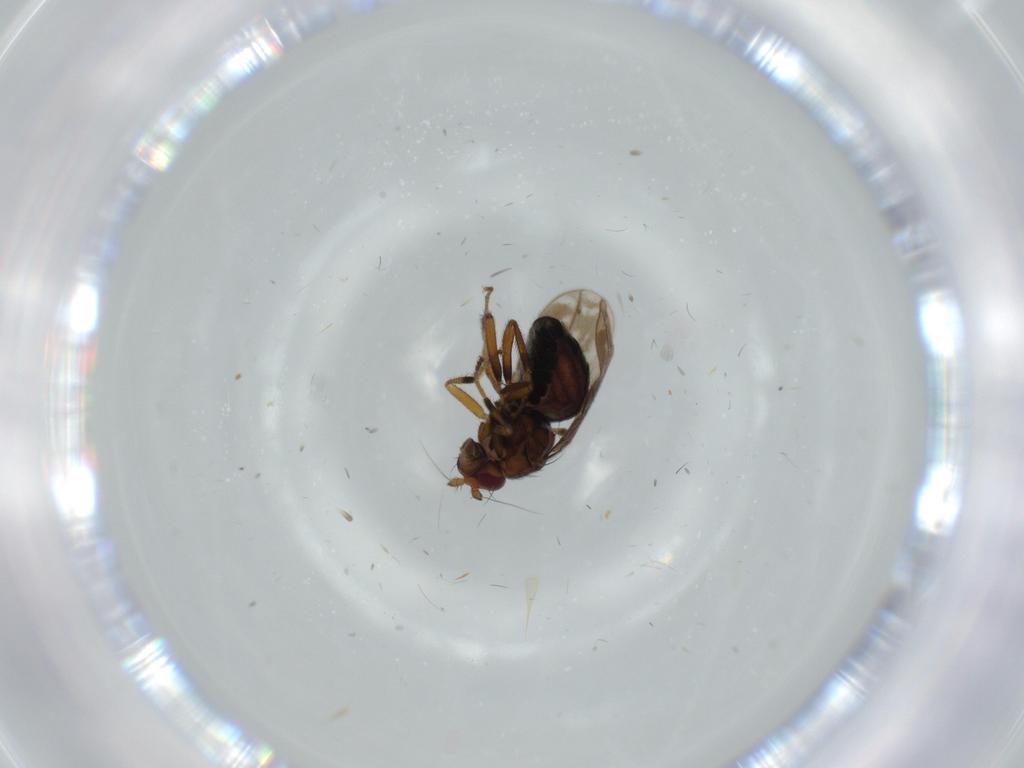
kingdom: Animalia
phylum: Arthropoda
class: Insecta
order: Diptera
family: Sphaeroceridae
